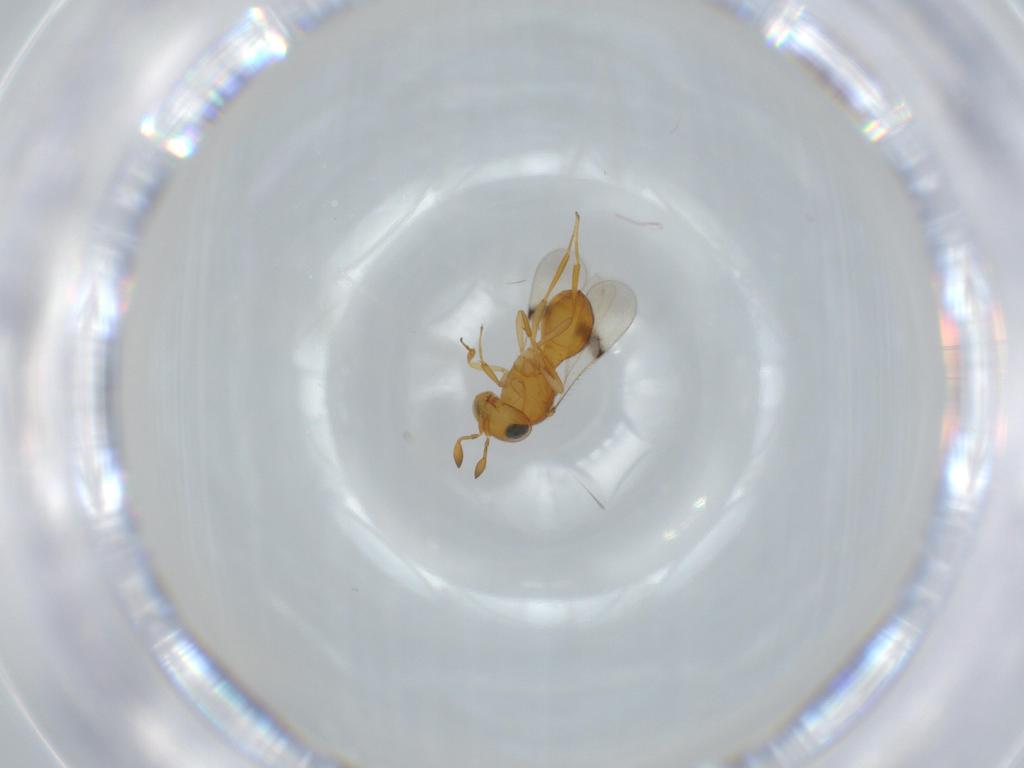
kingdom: Animalia
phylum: Arthropoda
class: Insecta
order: Hymenoptera
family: Scelionidae
